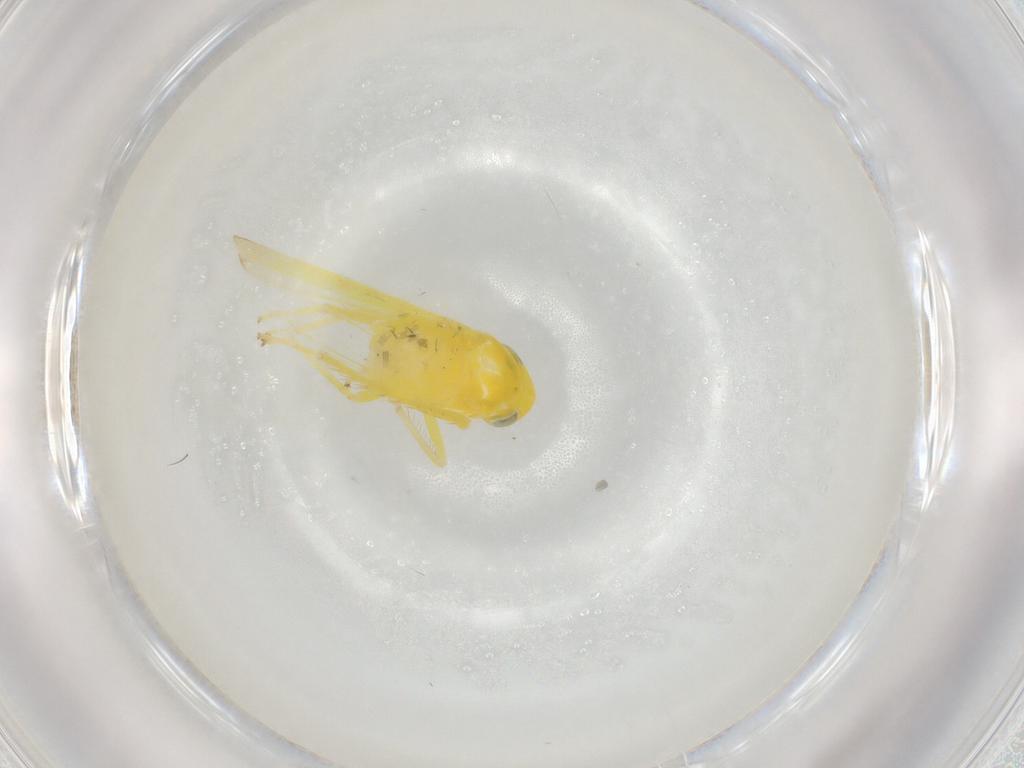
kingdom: Animalia
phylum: Arthropoda
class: Insecta
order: Hemiptera
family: Cicadellidae
